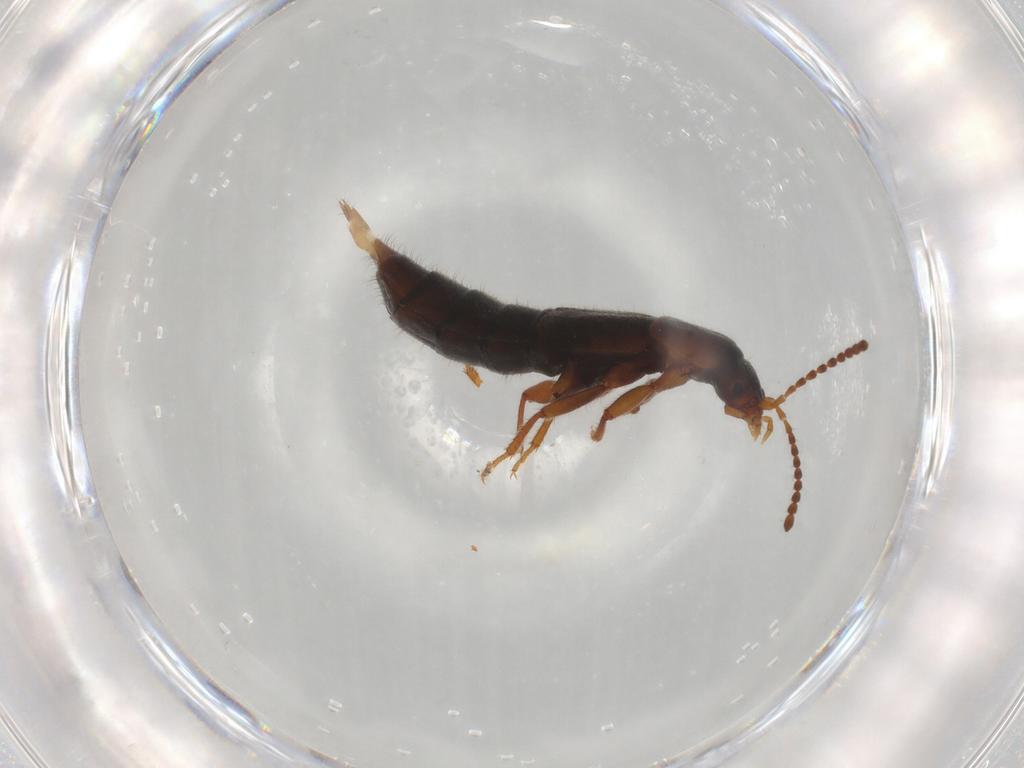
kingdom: Animalia
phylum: Arthropoda
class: Insecta
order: Coleoptera
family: Staphylinidae
